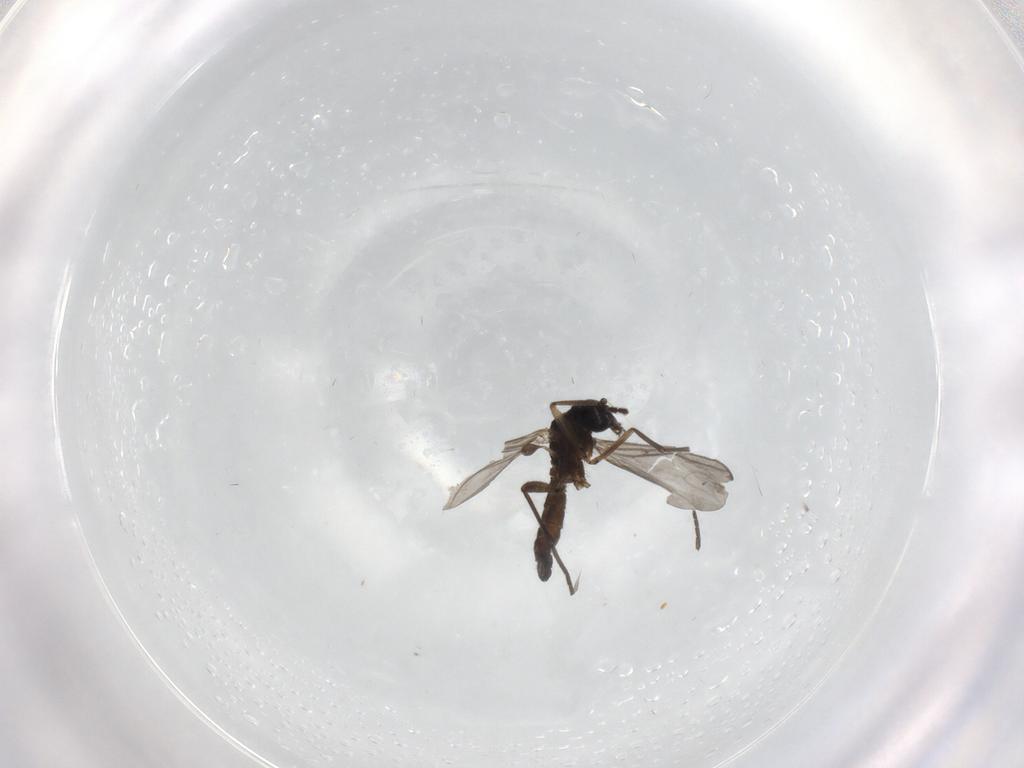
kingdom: Animalia
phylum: Arthropoda
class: Insecta
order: Diptera
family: Sciaridae
